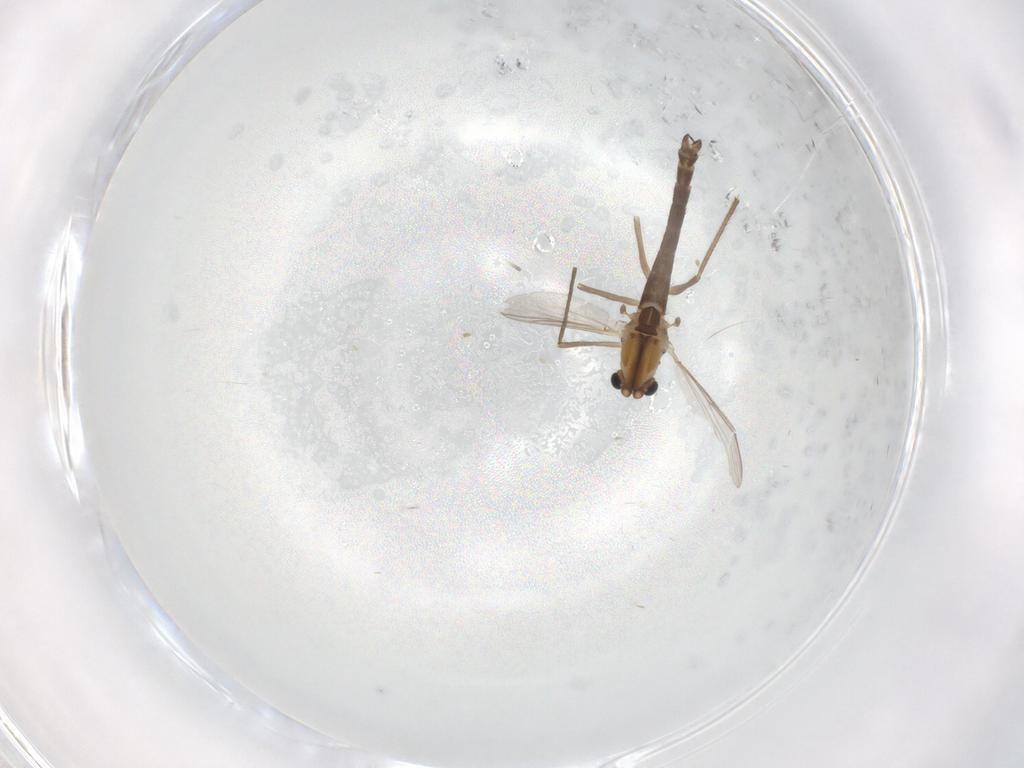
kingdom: Animalia
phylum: Arthropoda
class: Insecta
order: Diptera
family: Chironomidae
